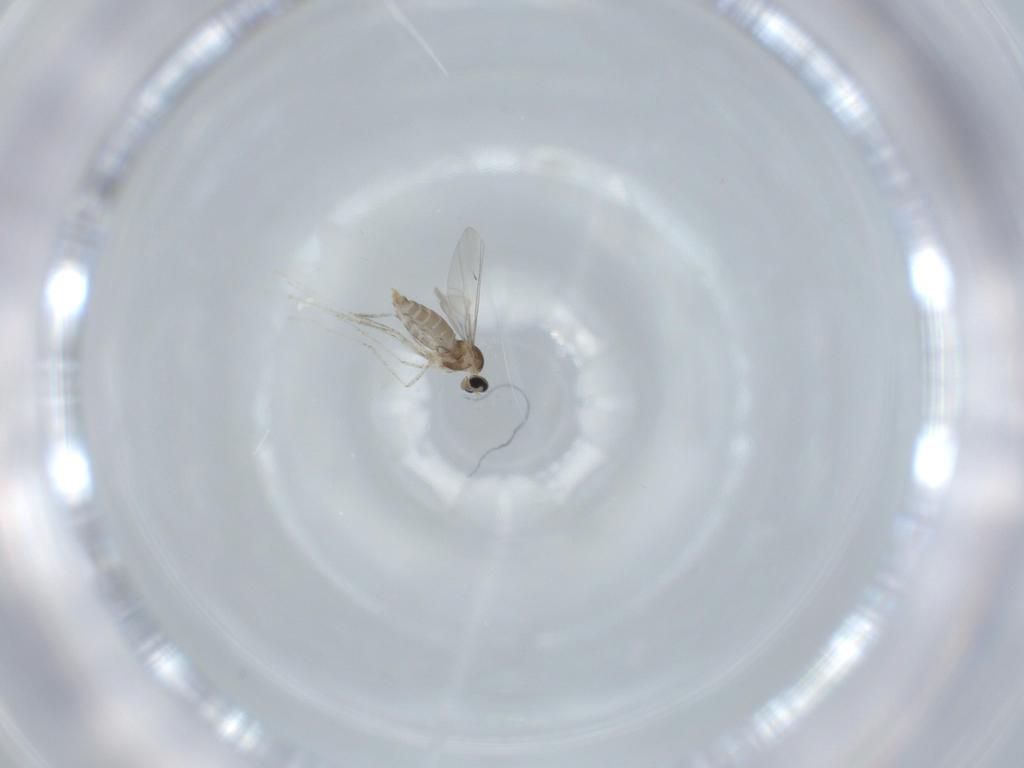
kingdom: Animalia
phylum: Arthropoda
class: Insecta
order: Diptera
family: Cecidomyiidae
